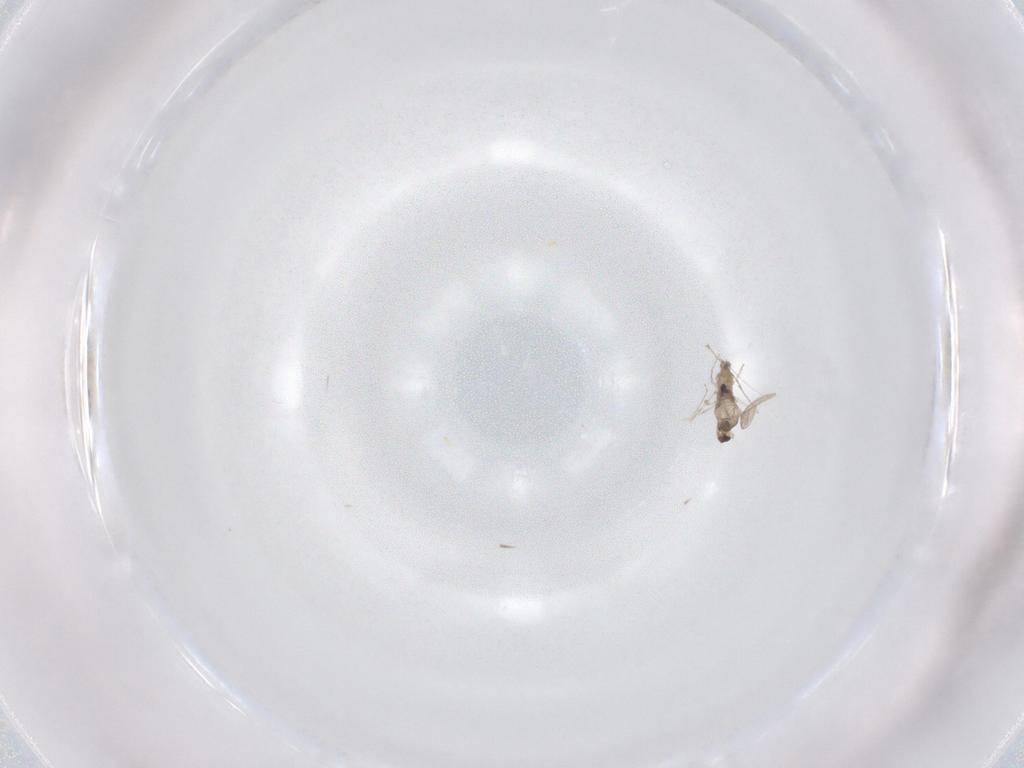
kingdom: Animalia
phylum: Arthropoda
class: Insecta
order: Diptera
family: Cecidomyiidae
